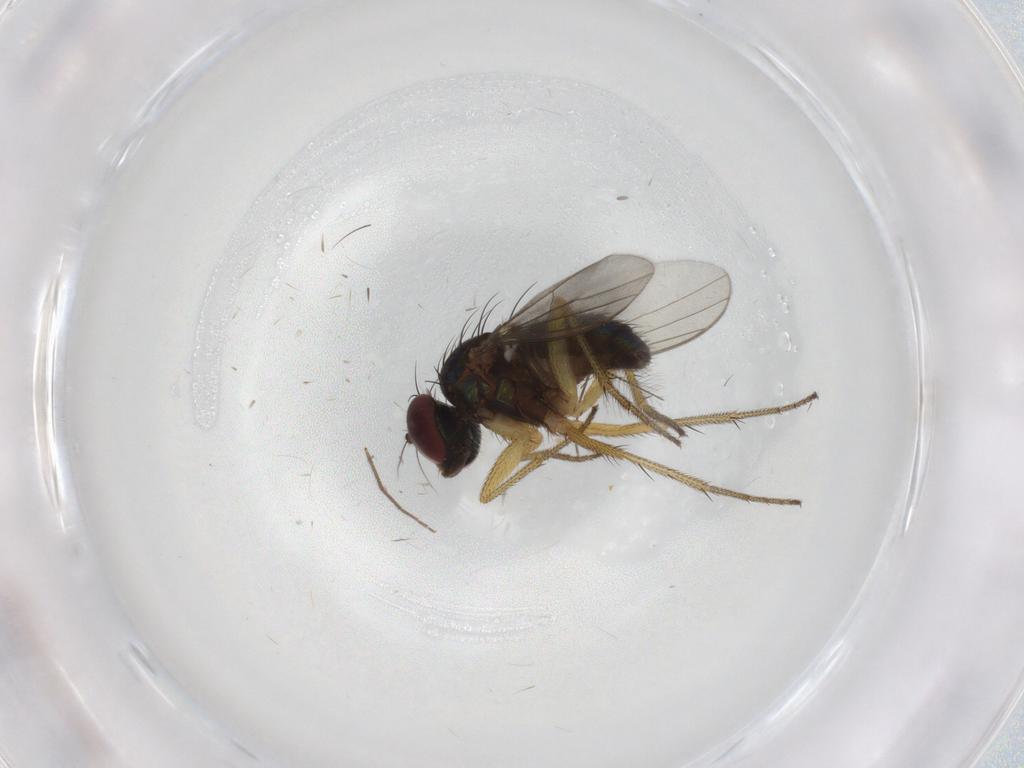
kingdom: Animalia
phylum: Arthropoda
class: Insecta
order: Diptera
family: Dolichopodidae
